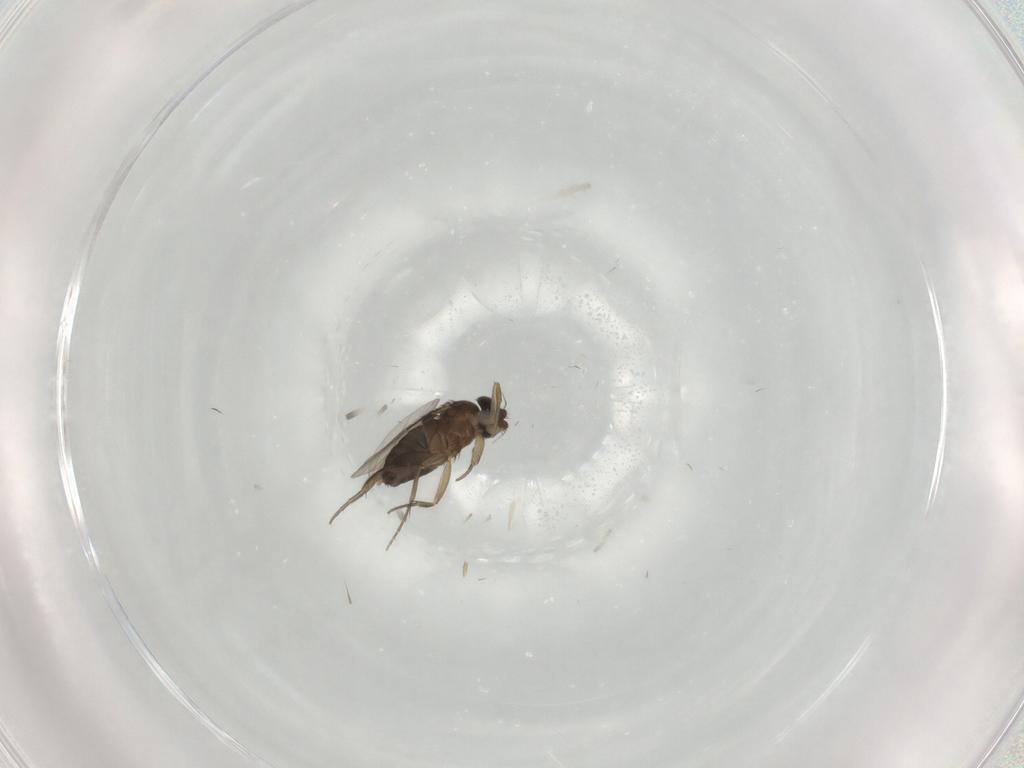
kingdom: Animalia
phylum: Arthropoda
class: Insecta
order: Diptera
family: Phoridae
